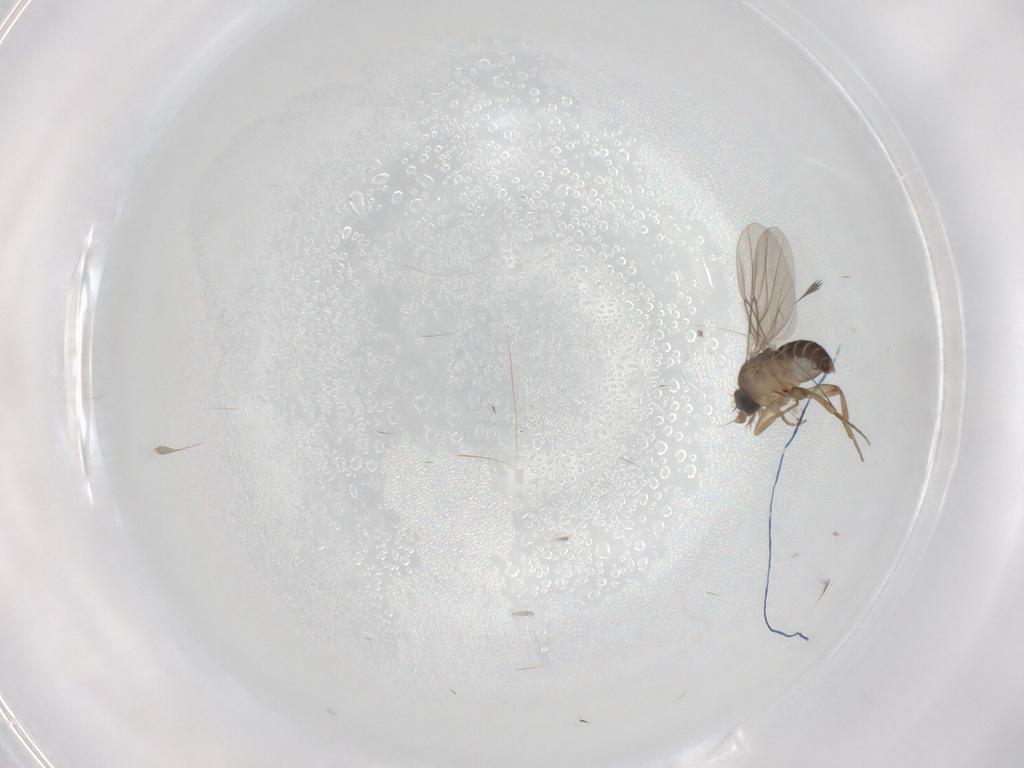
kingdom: Animalia
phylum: Arthropoda
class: Insecta
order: Diptera
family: Phoridae
